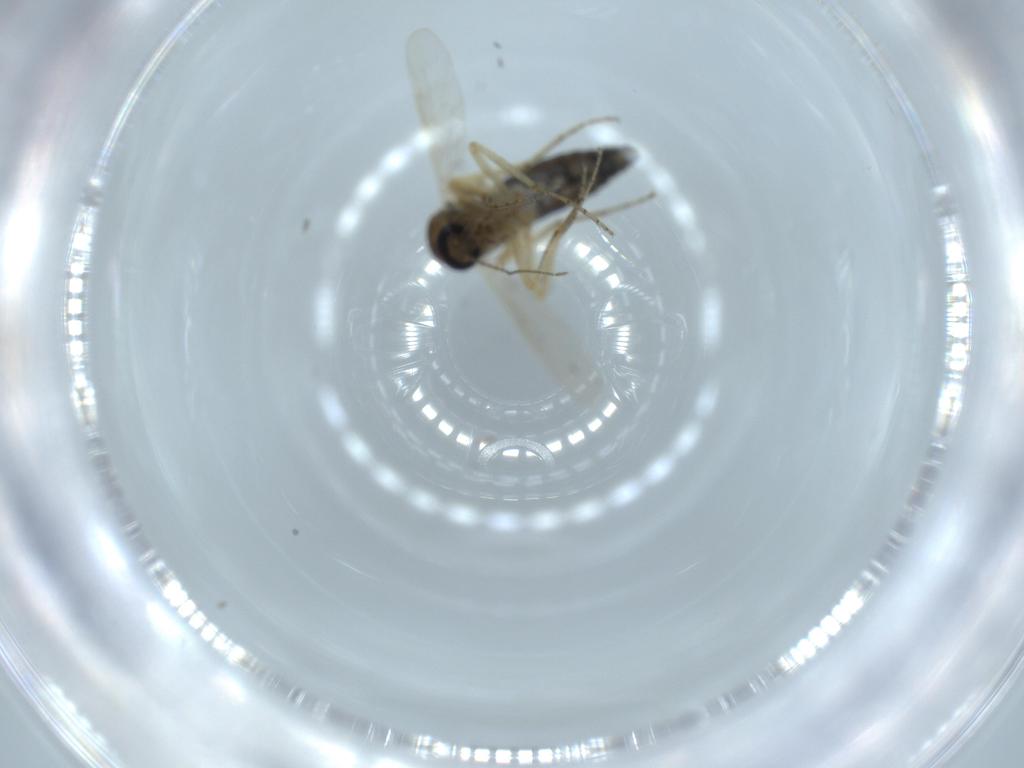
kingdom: Animalia
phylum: Arthropoda
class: Insecta
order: Diptera
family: Ceratopogonidae
